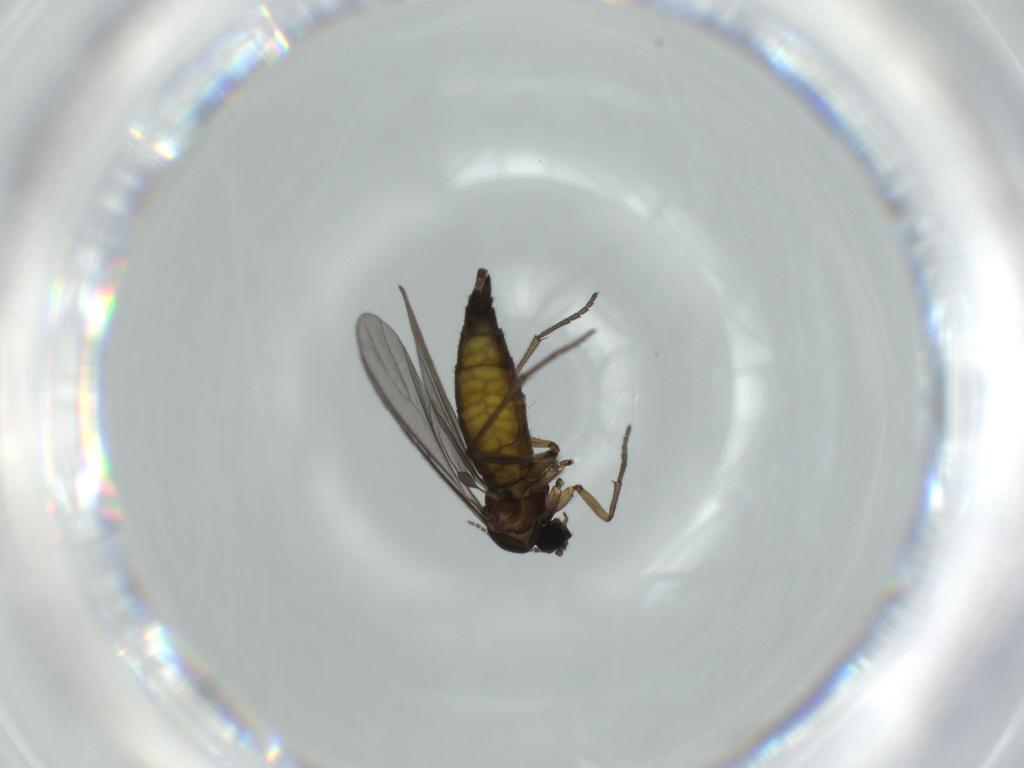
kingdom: Animalia
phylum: Arthropoda
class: Insecta
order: Diptera
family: Sciaridae
